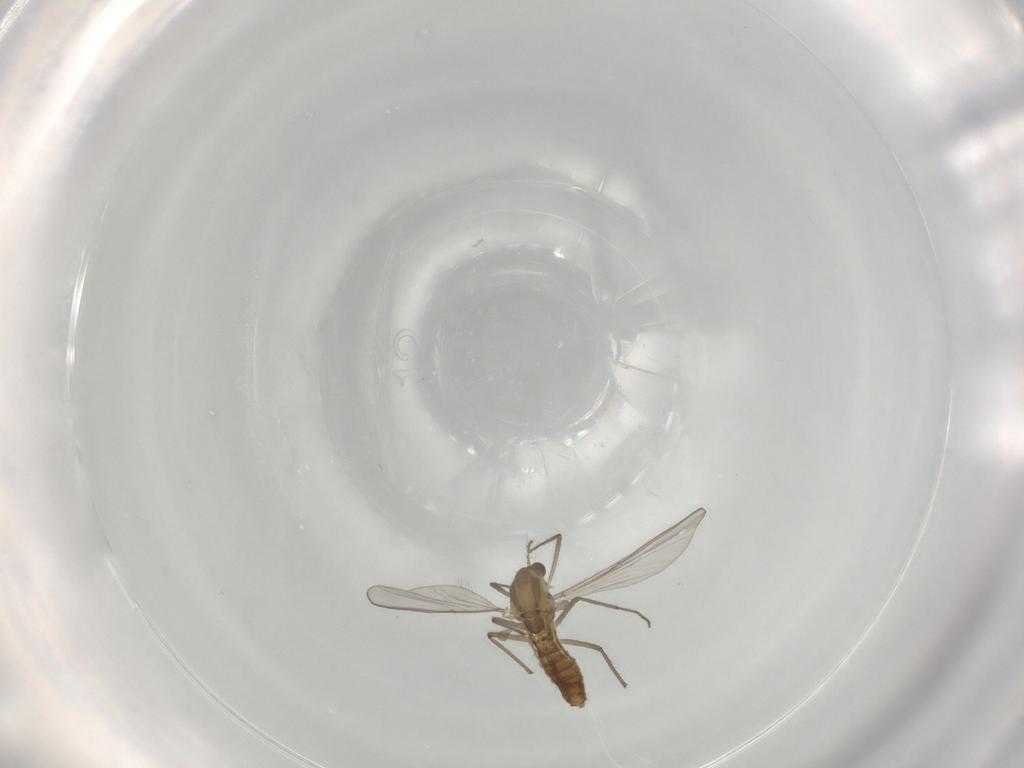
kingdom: Animalia
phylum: Arthropoda
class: Insecta
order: Diptera
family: Chironomidae
